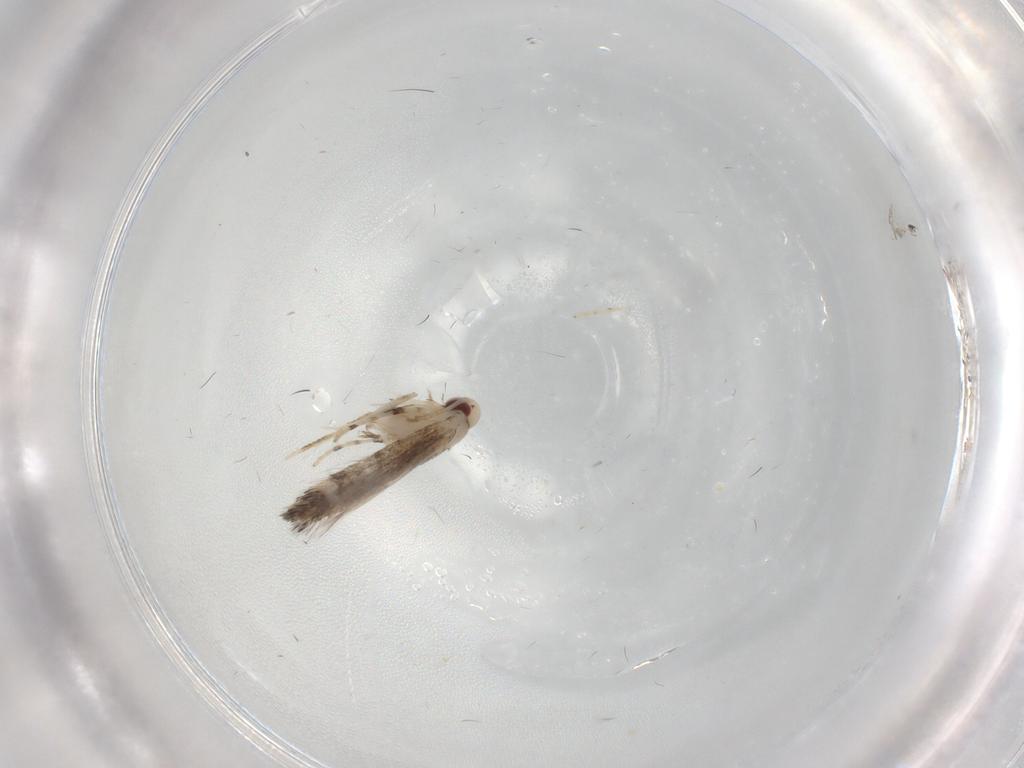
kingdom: Animalia
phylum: Arthropoda
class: Insecta
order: Lepidoptera
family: Gracillariidae
